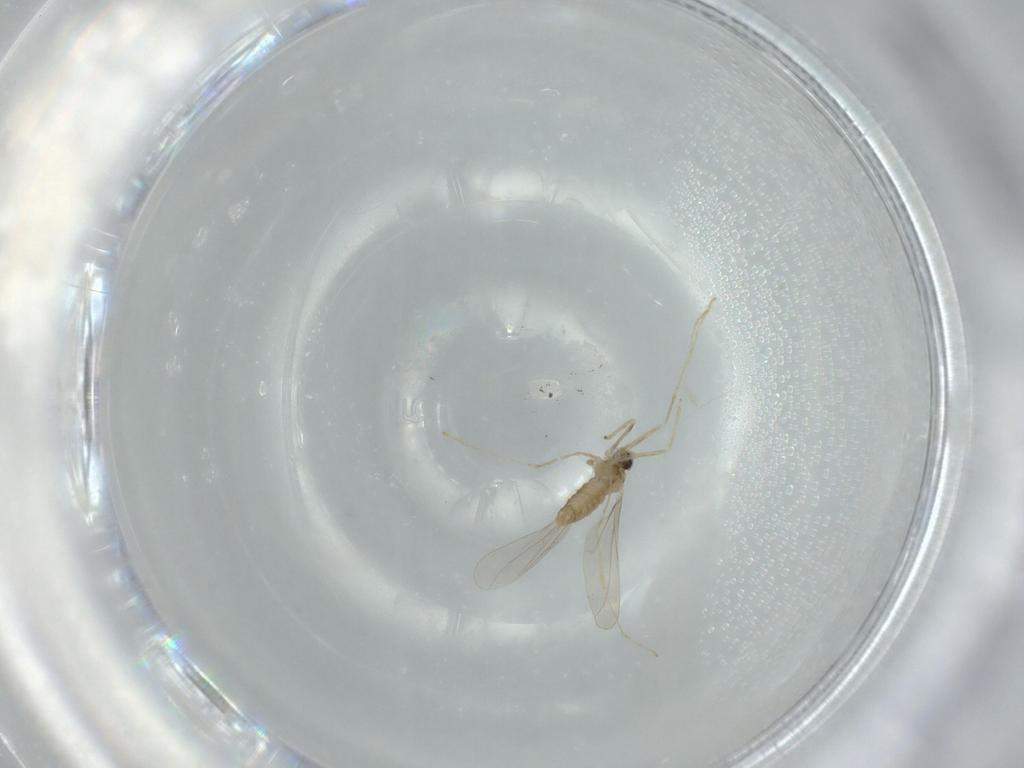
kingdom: Animalia
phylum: Arthropoda
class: Insecta
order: Diptera
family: Cecidomyiidae
